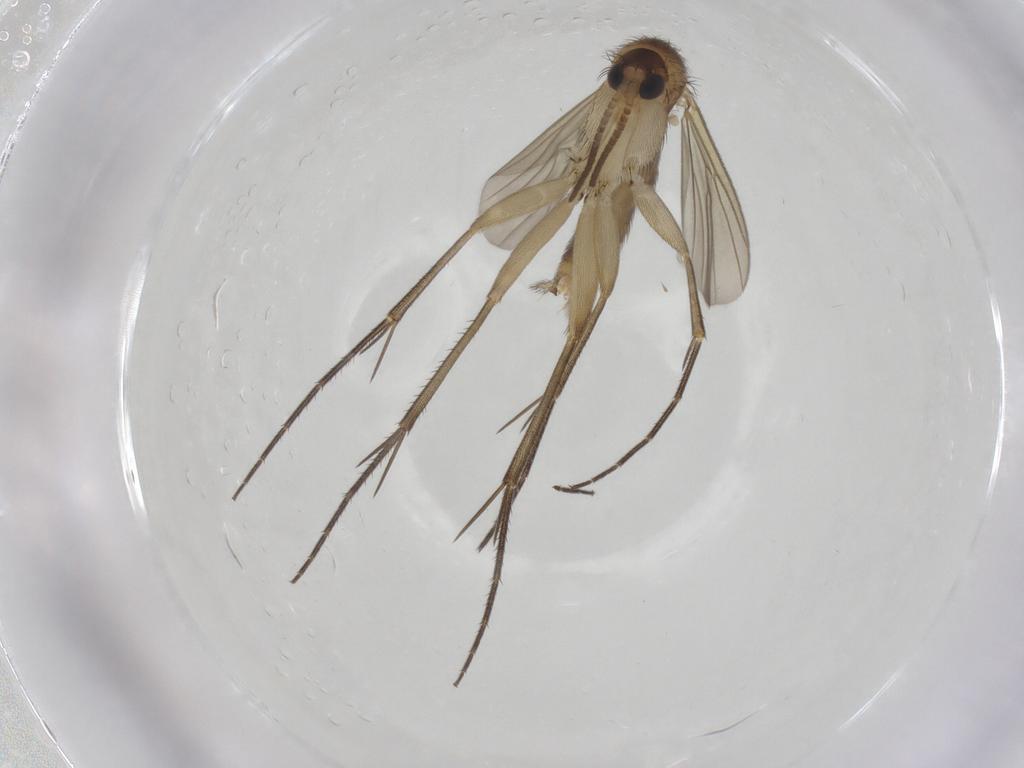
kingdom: Animalia
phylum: Arthropoda
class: Insecta
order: Diptera
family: Mycetophilidae
